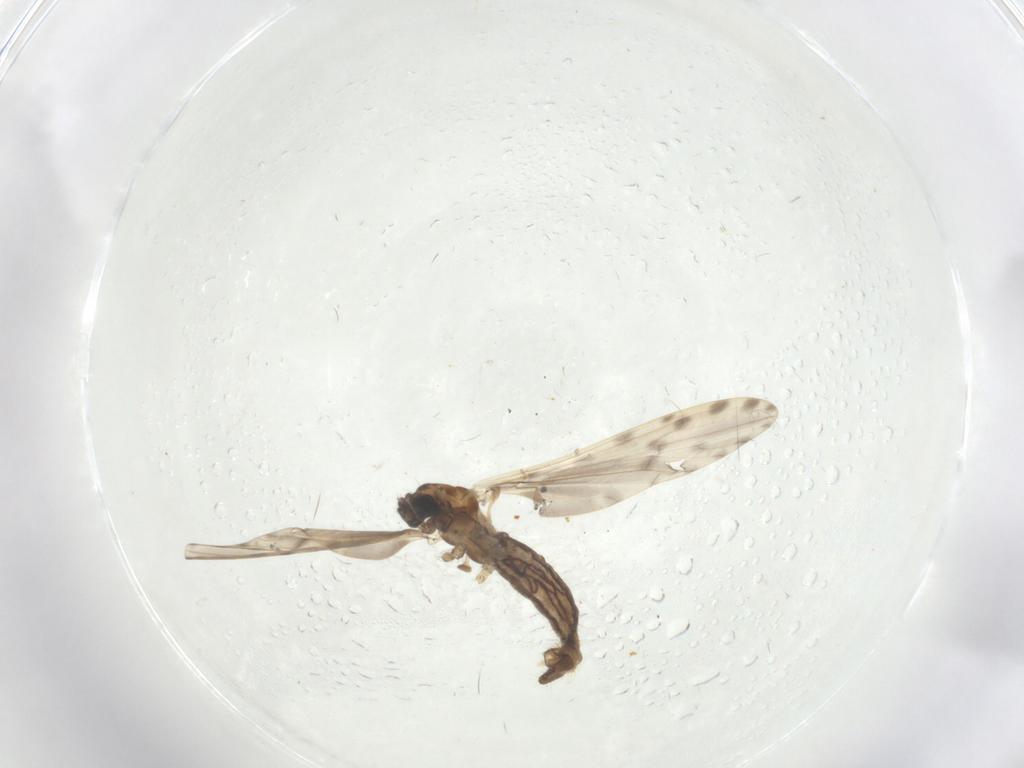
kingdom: Animalia
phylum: Arthropoda
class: Insecta
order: Diptera
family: Limoniidae
